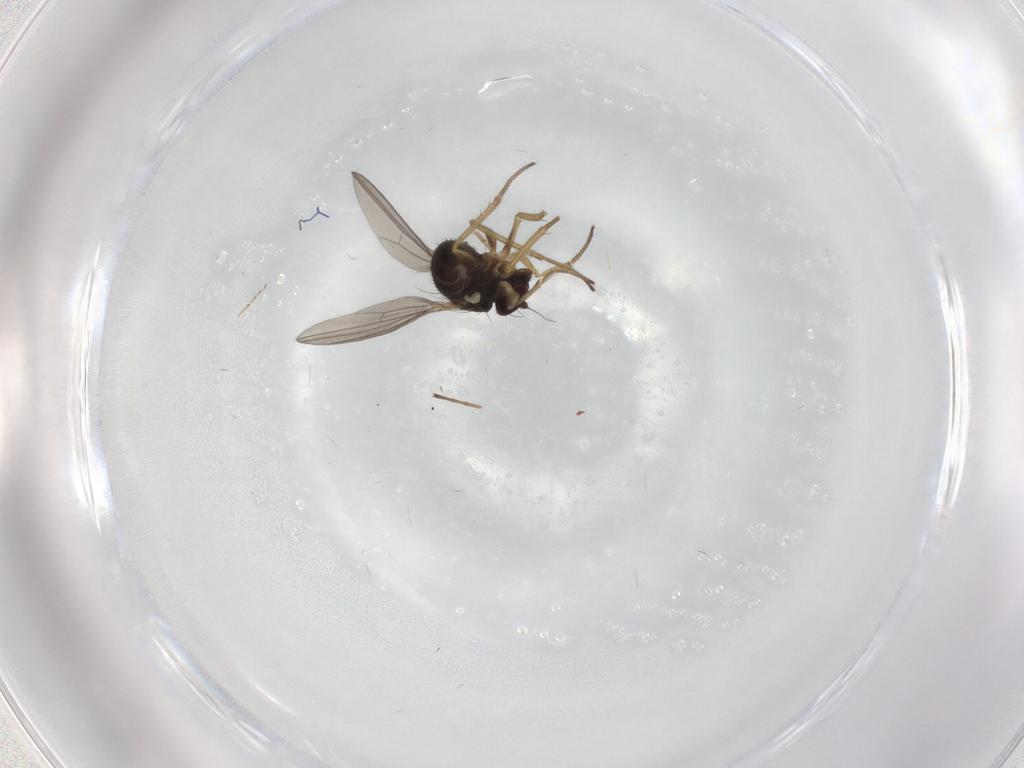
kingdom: Animalia
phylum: Arthropoda
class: Insecta
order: Diptera
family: Dolichopodidae
